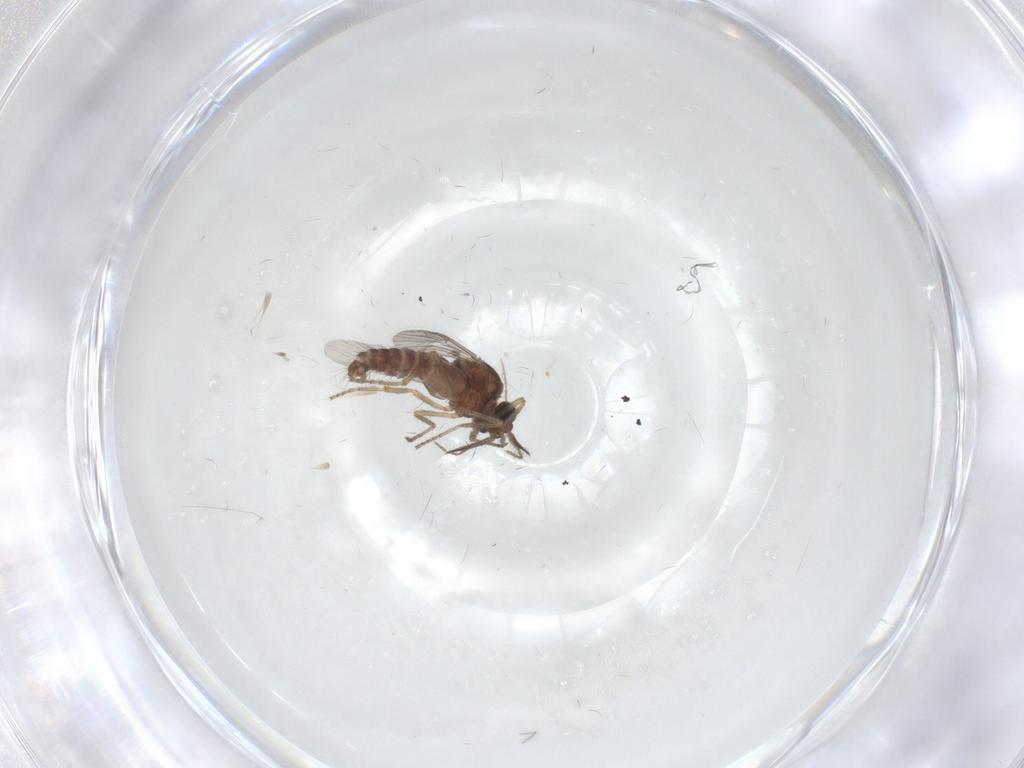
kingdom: Animalia
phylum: Arthropoda
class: Insecta
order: Diptera
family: Ceratopogonidae
